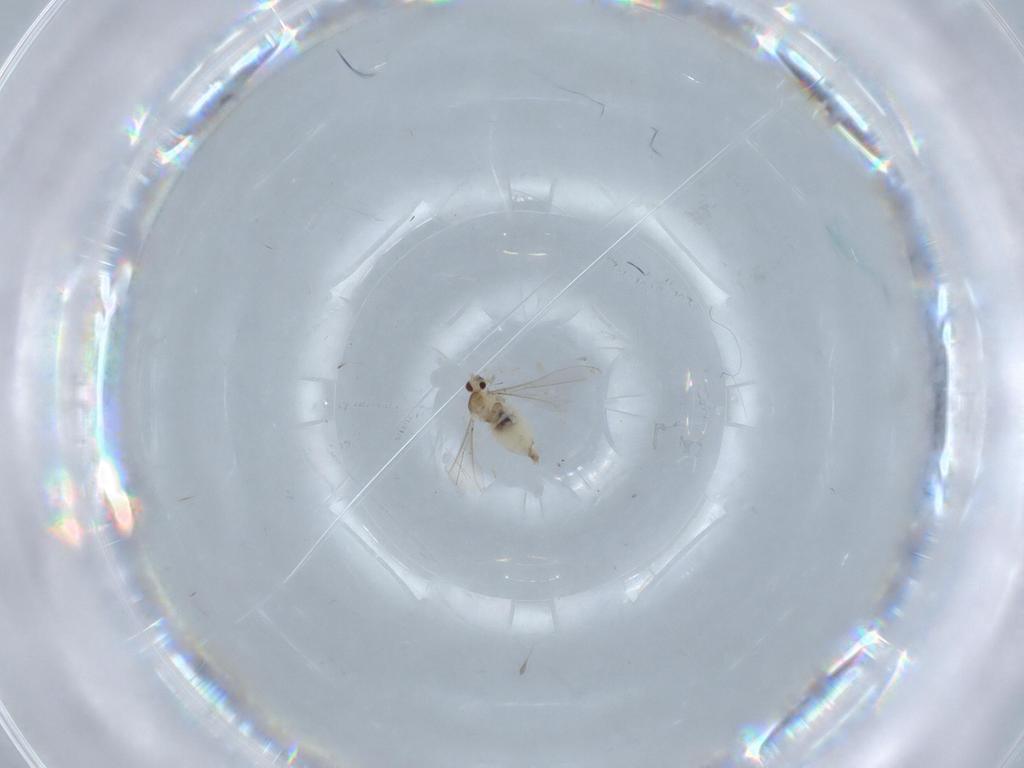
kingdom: Animalia
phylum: Arthropoda
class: Insecta
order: Diptera
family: Cecidomyiidae
